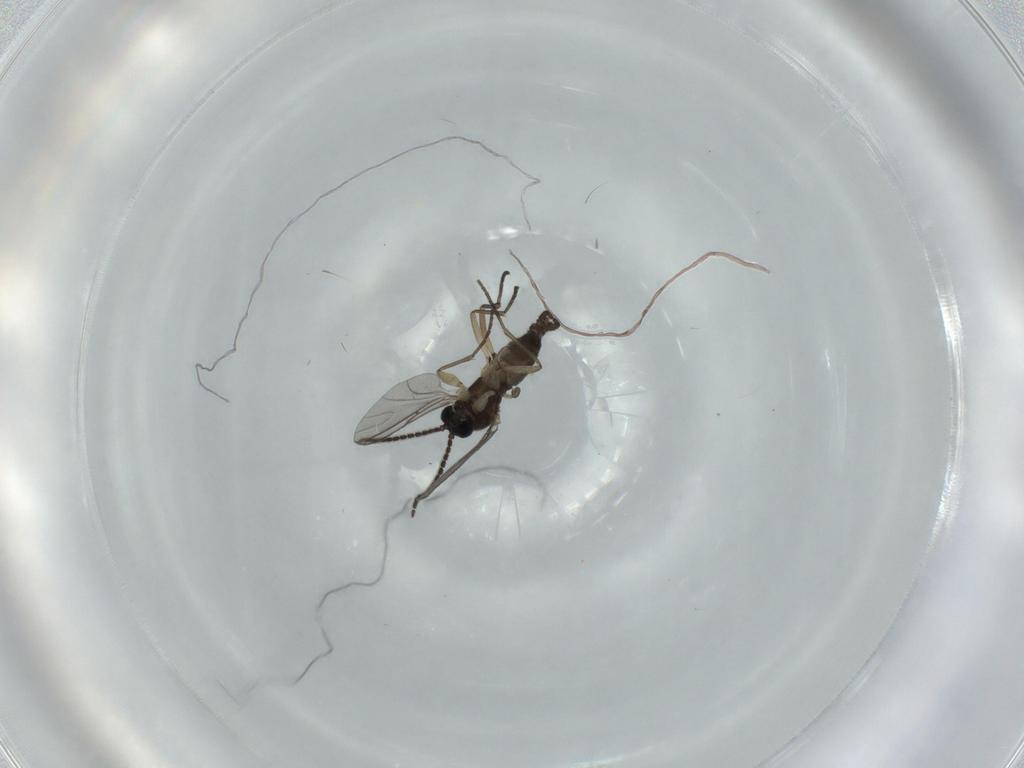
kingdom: Animalia
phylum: Arthropoda
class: Insecta
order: Diptera
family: Sciaridae
